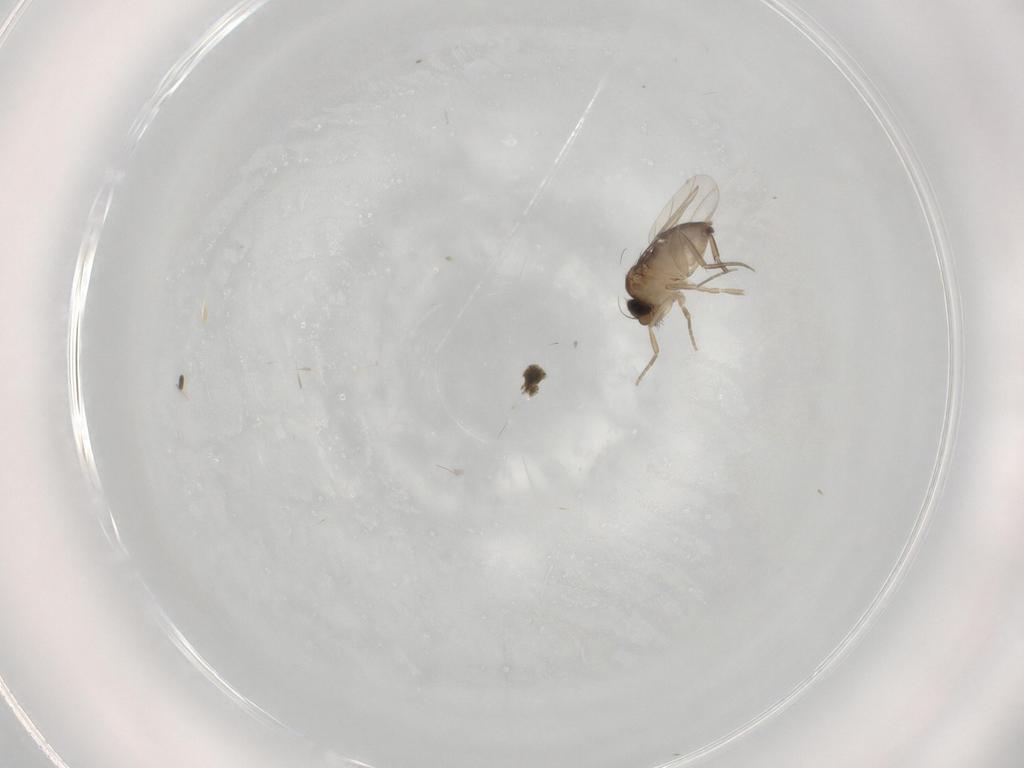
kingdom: Animalia
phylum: Arthropoda
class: Insecta
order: Diptera
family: Phoridae
